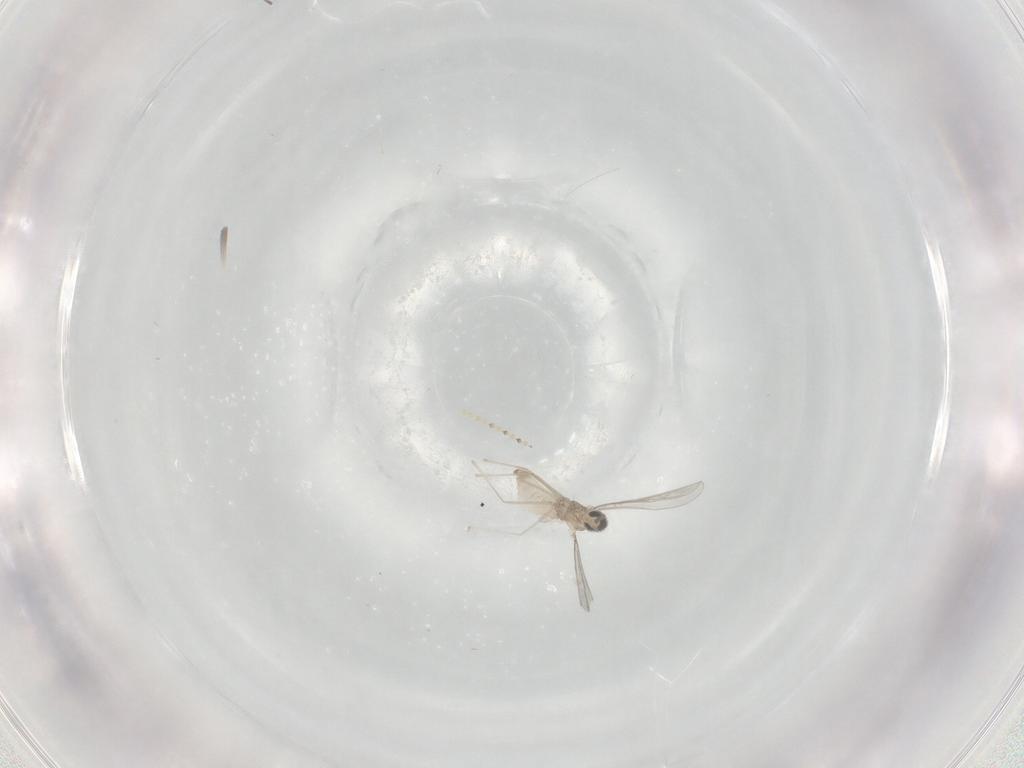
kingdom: Animalia
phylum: Arthropoda
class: Insecta
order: Diptera
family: Cecidomyiidae
